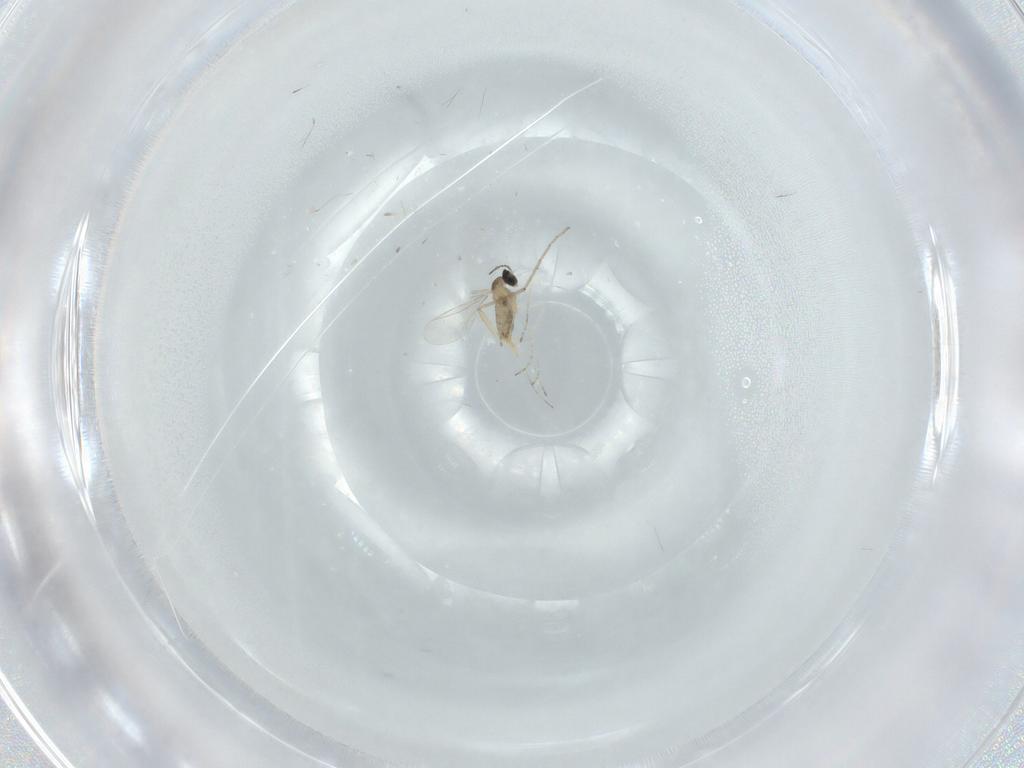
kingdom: Animalia
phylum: Arthropoda
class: Insecta
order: Diptera
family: Cecidomyiidae
